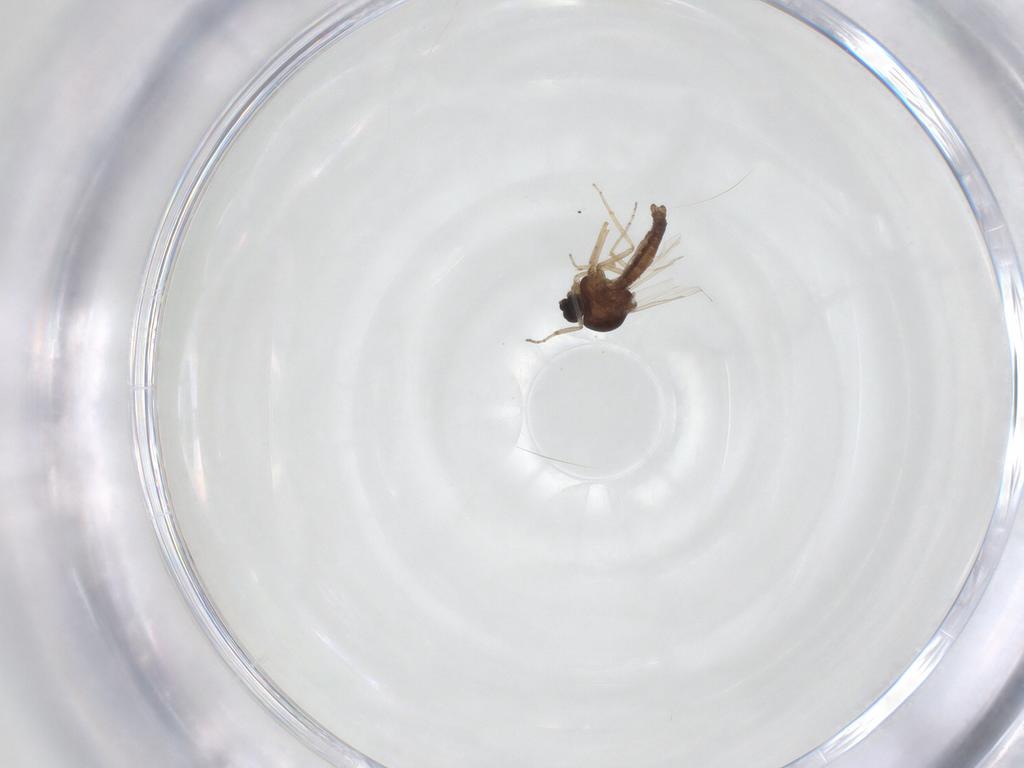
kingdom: Animalia
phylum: Arthropoda
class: Insecta
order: Diptera
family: Ceratopogonidae
